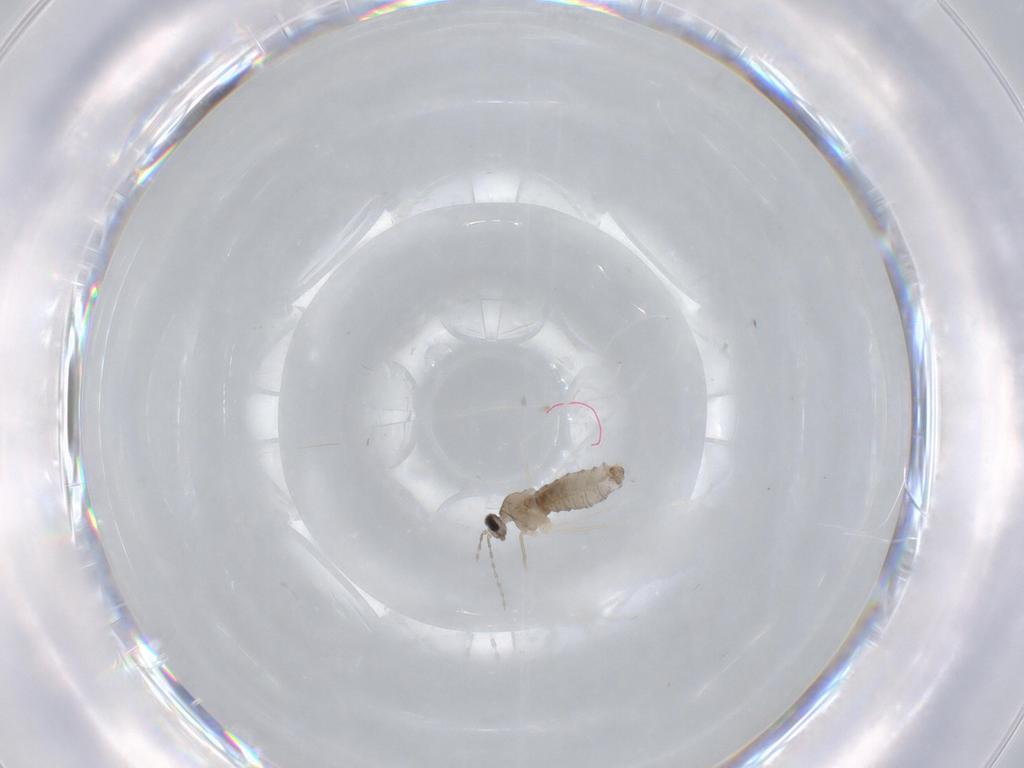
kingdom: Animalia
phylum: Arthropoda
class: Insecta
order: Diptera
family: Cecidomyiidae
